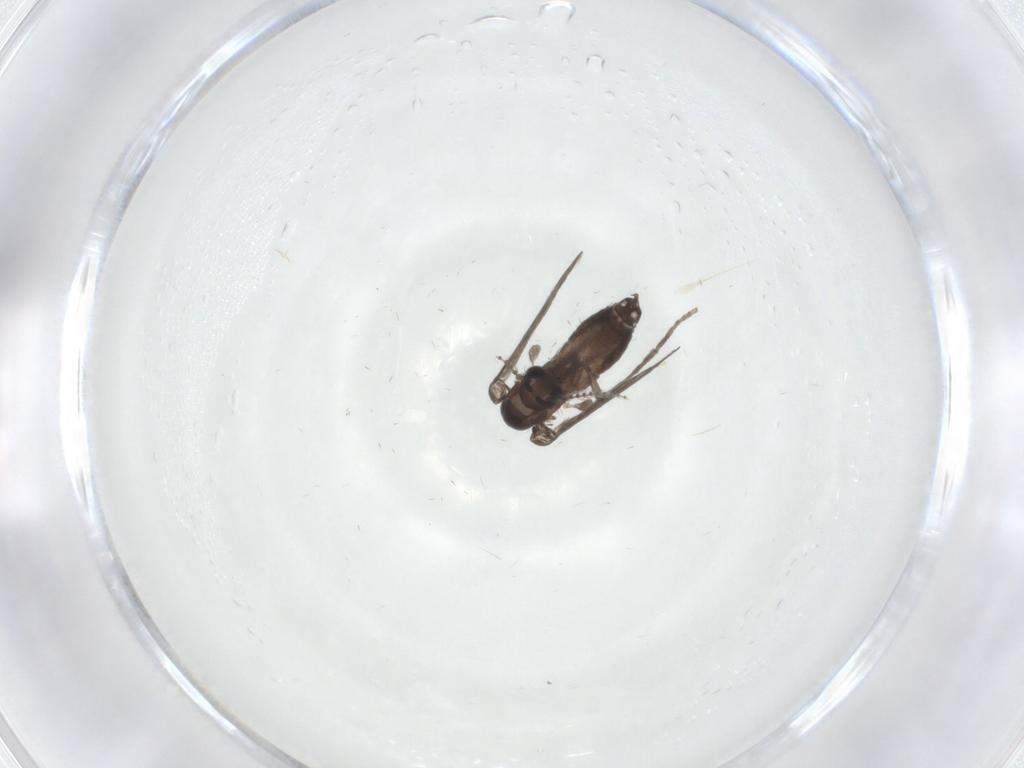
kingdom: Animalia
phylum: Arthropoda
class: Insecta
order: Diptera
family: Psychodidae
